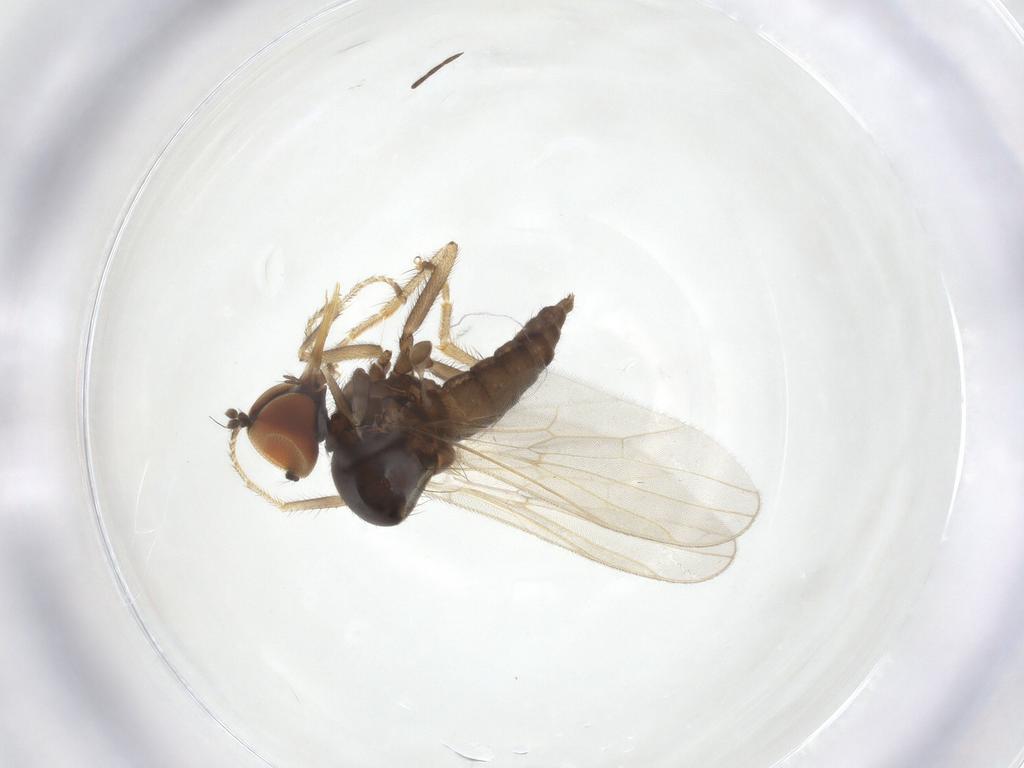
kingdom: Animalia
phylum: Arthropoda
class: Insecta
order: Diptera
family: Hybotidae
